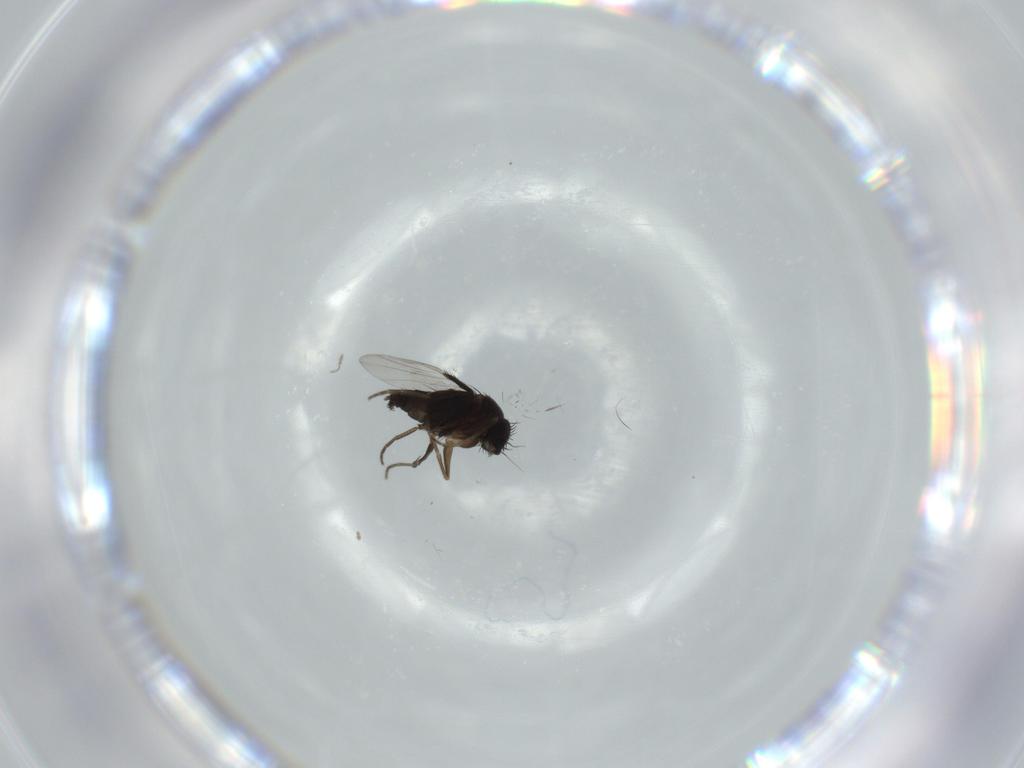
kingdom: Animalia
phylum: Arthropoda
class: Insecta
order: Diptera
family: Phoridae
